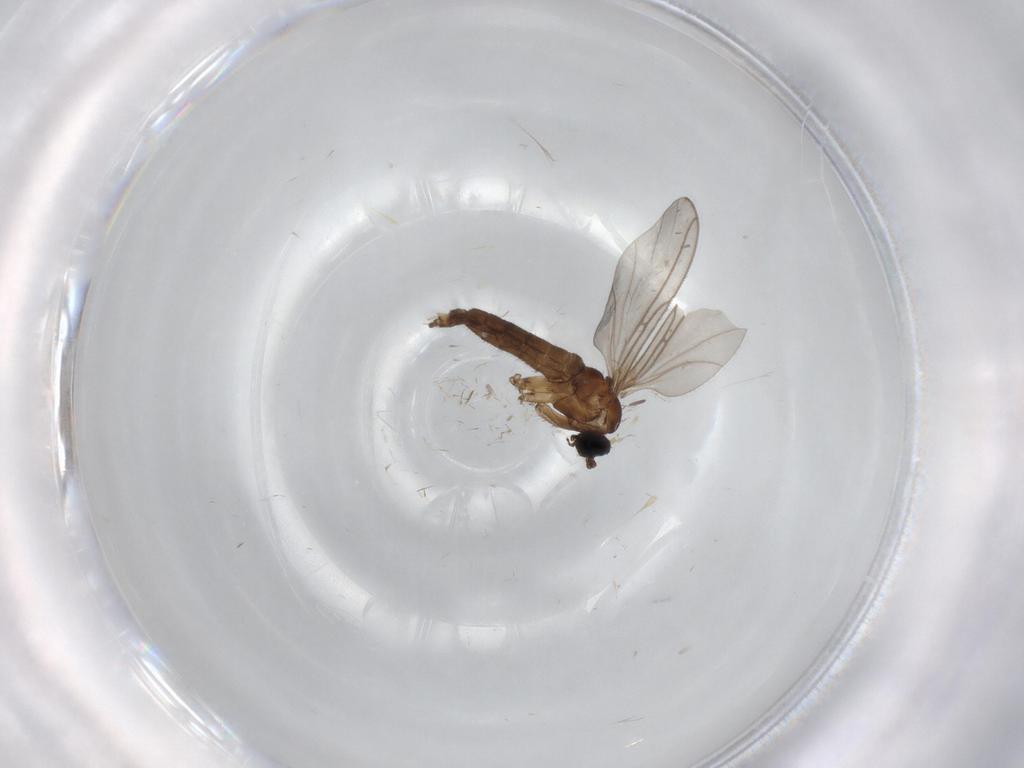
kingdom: Animalia
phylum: Arthropoda
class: Insecta
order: Diptera
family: Sciaridae
